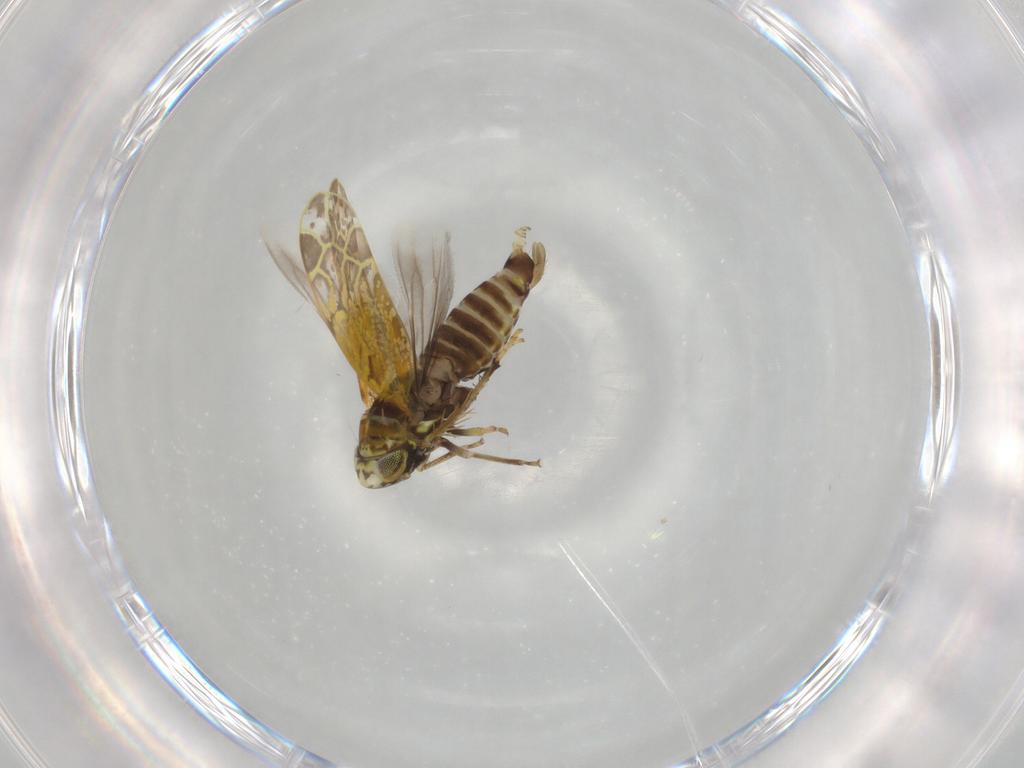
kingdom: Animalia
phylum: Arthropoda
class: Insecta
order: Hemiptera
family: Cicadellidae
